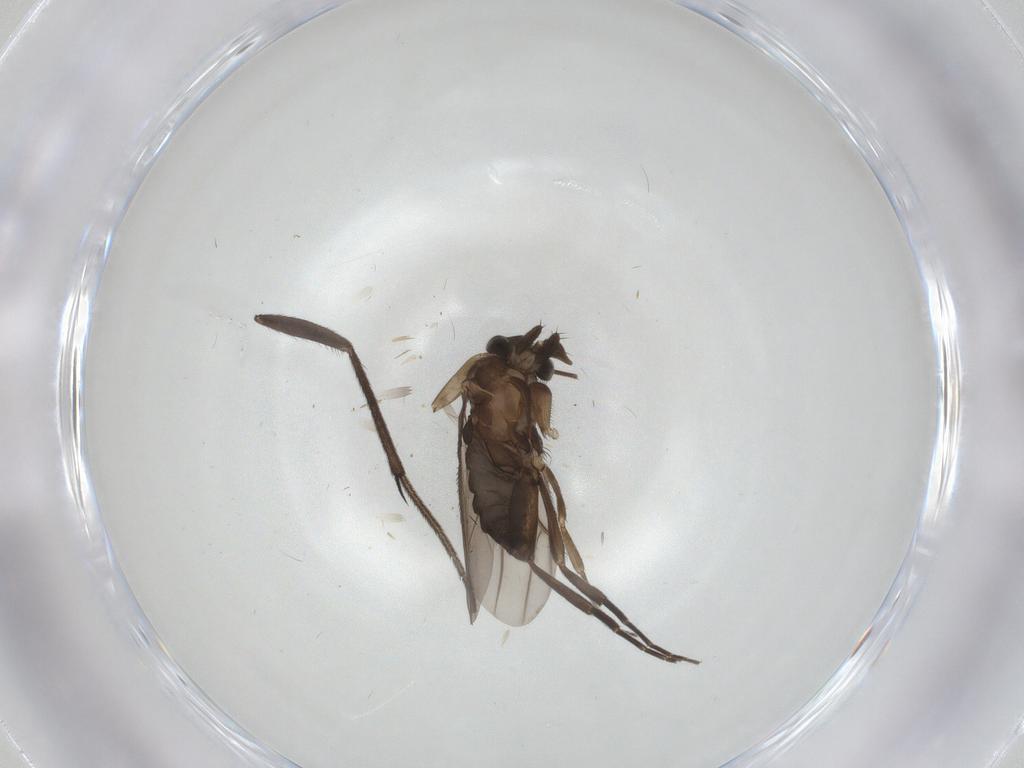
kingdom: Animalia
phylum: Arthropoda
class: Insecta
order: Diptera
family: Phoridae
